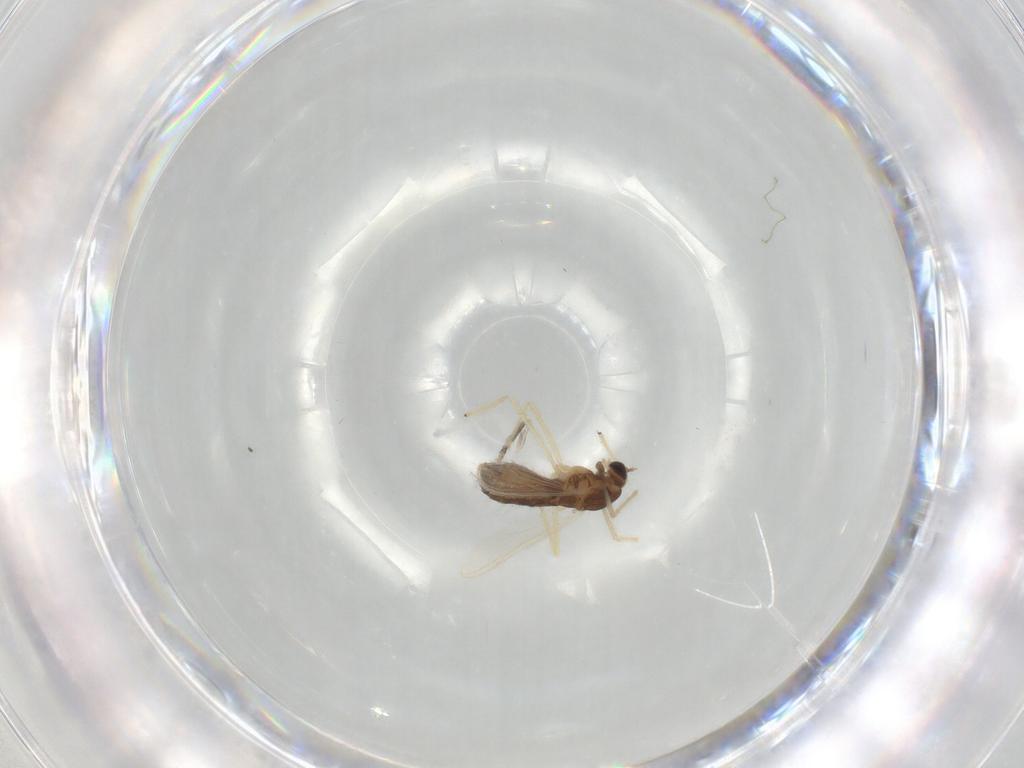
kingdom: Animalia
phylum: Arthropoda
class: Insecta
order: Diptera
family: Chironomidae
